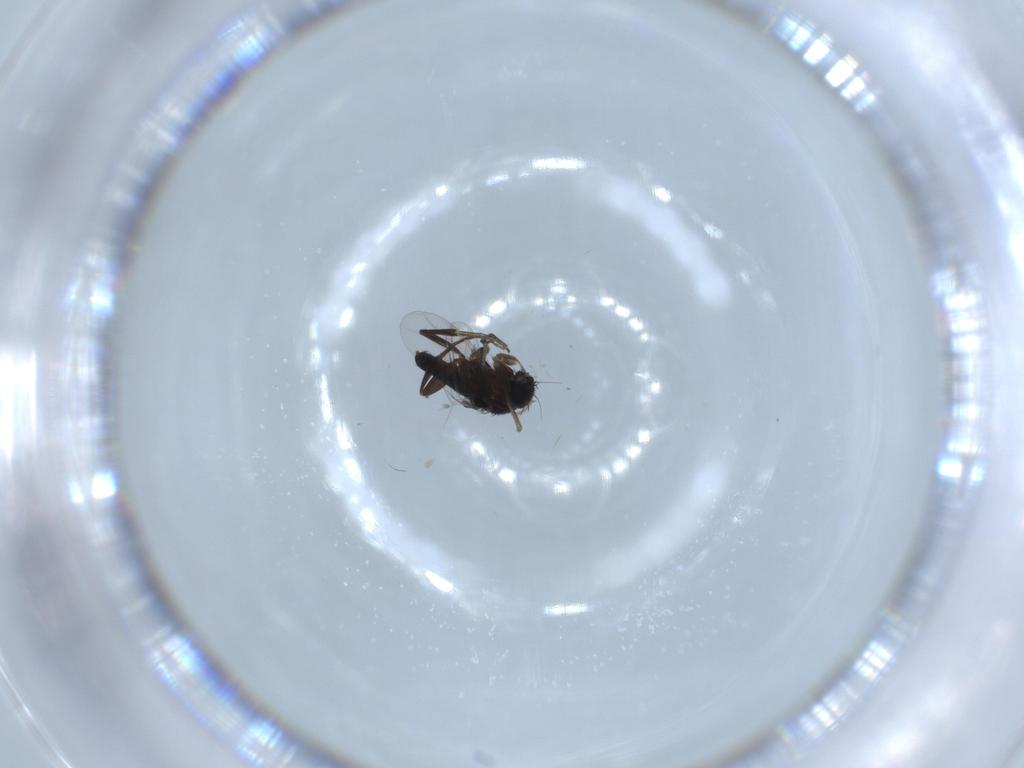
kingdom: Animalia
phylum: Arthropoda
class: Insecta
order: Diptera
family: Phoridae
